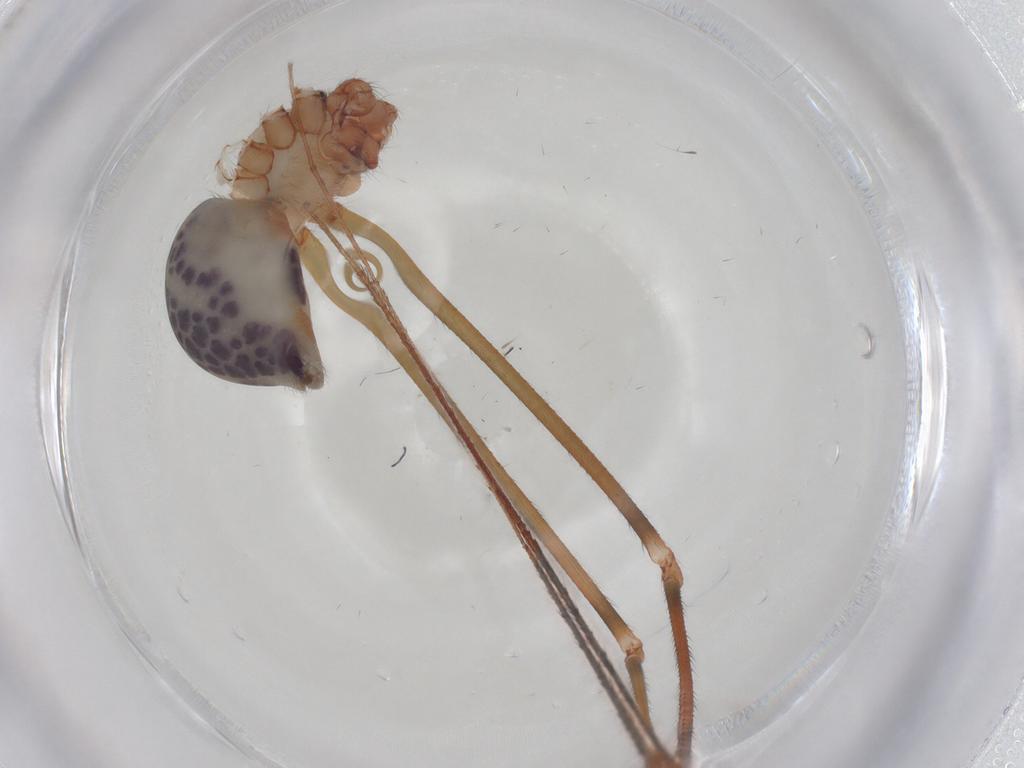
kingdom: Animalia
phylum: Arthropoda
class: Arachnida
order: Araneae
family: Pholcidae
